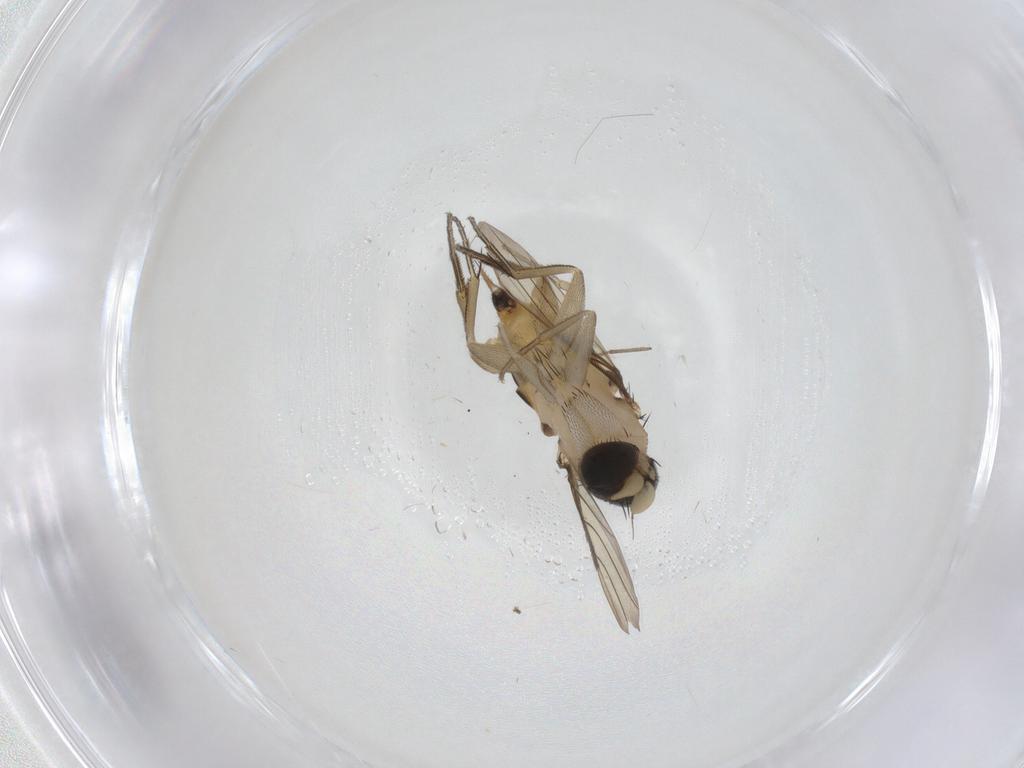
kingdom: Animalia
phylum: Arthropoda
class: Insecta
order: Diptera
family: Phoridae
